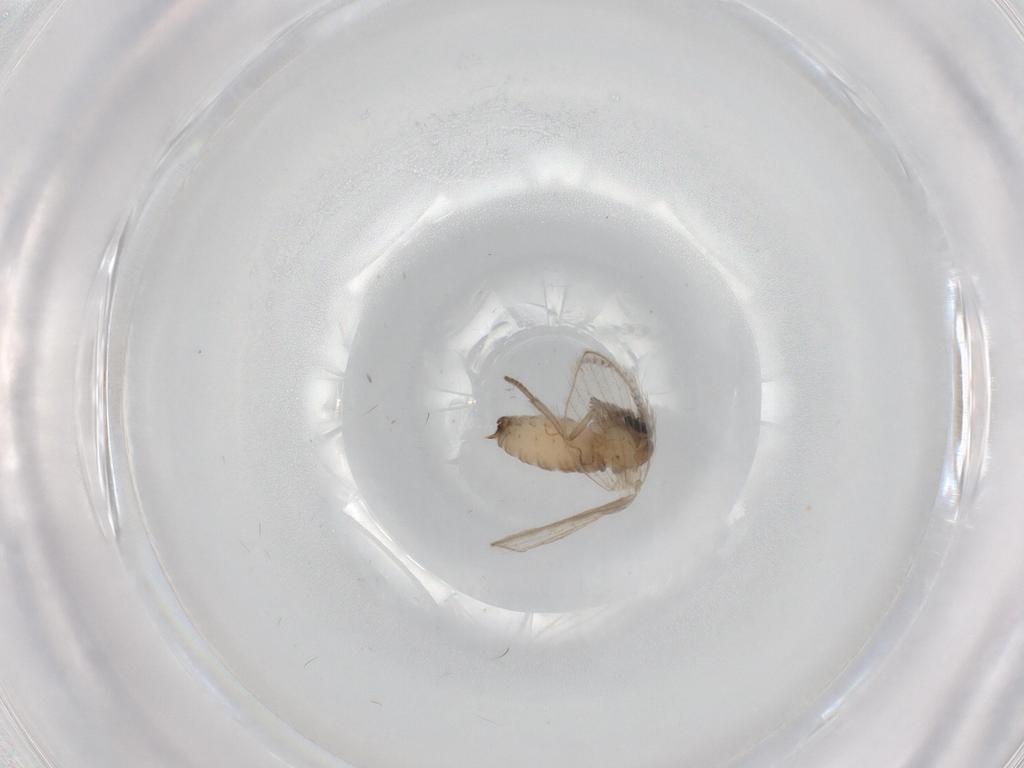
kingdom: Animalia
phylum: Arthropoda
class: Insecta
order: Diptera
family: Psychodidae
